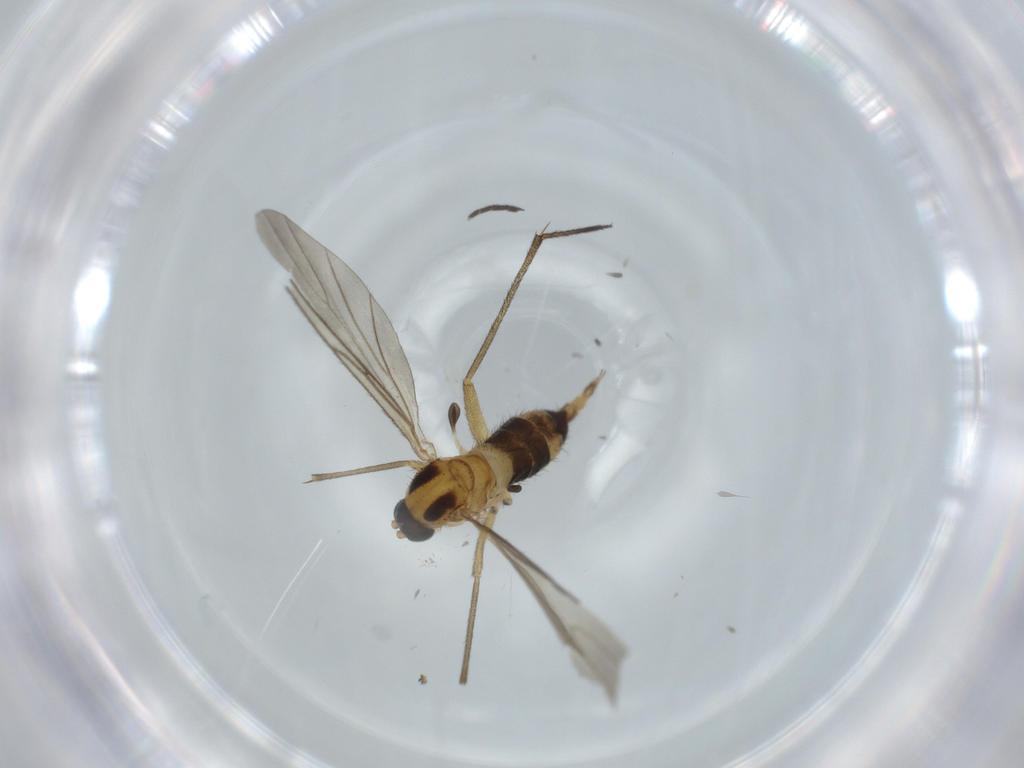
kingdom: Animalia
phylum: Arthropoda
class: Insecta
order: Diptera
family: Cecidomyiidae
